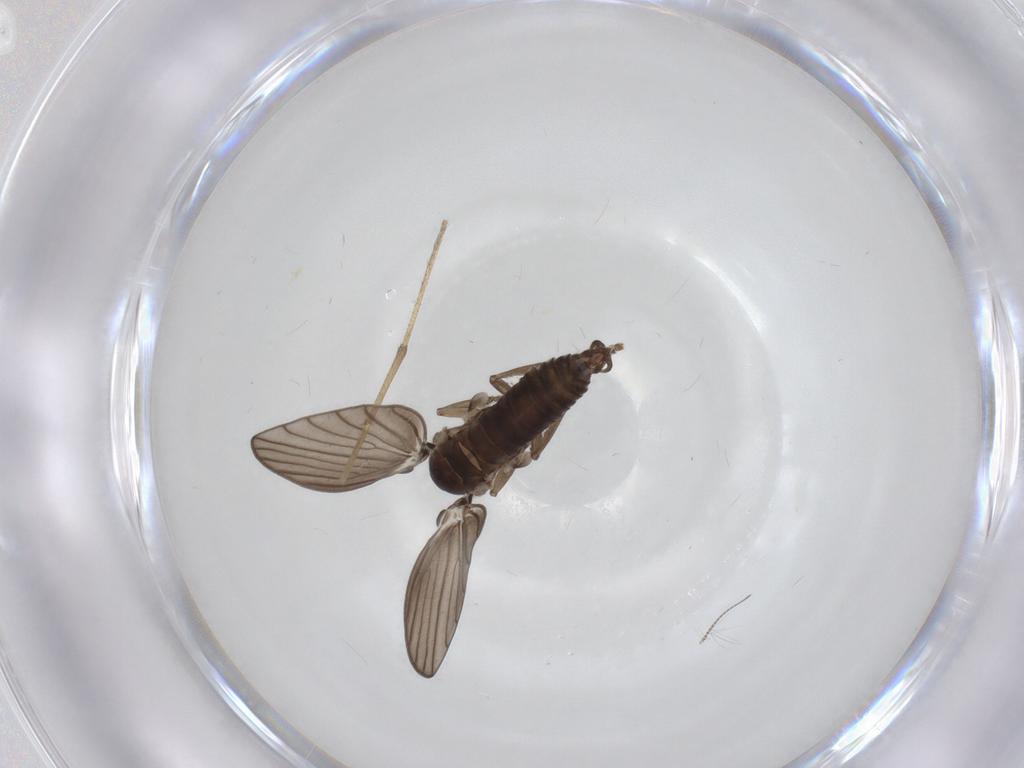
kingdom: Animalia
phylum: Arthropoda
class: Insecta
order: Diptera
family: Psychodidae
